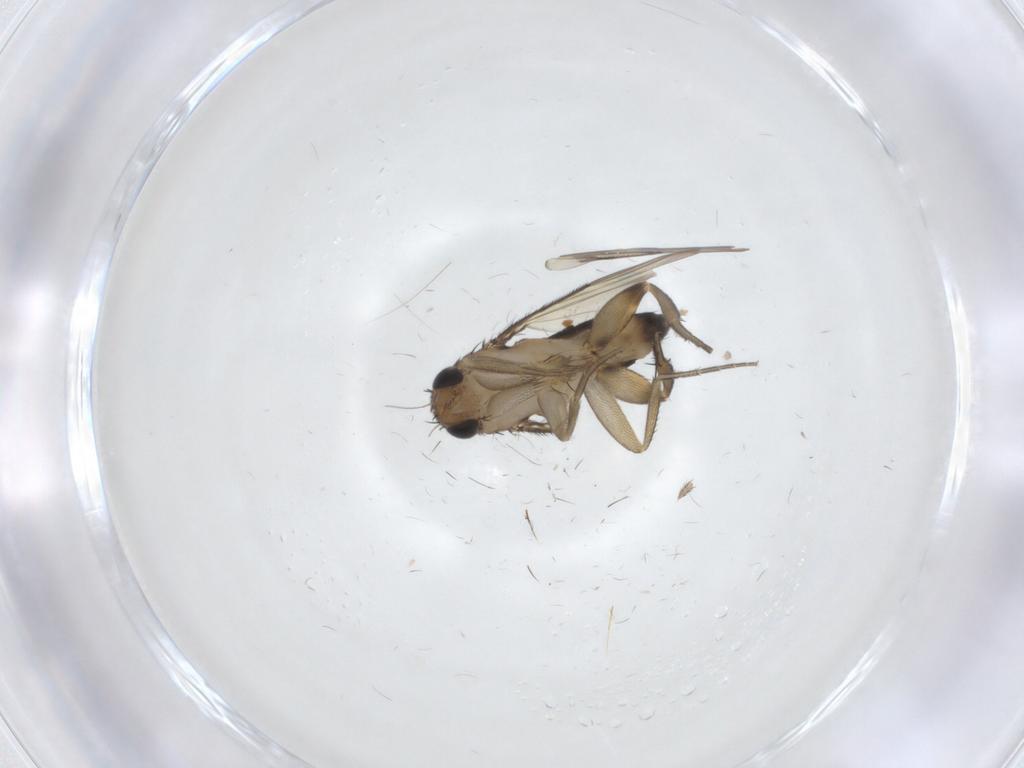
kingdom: Animalia
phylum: Arthropoda
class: Insecta
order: Diptera
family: Phoridae
